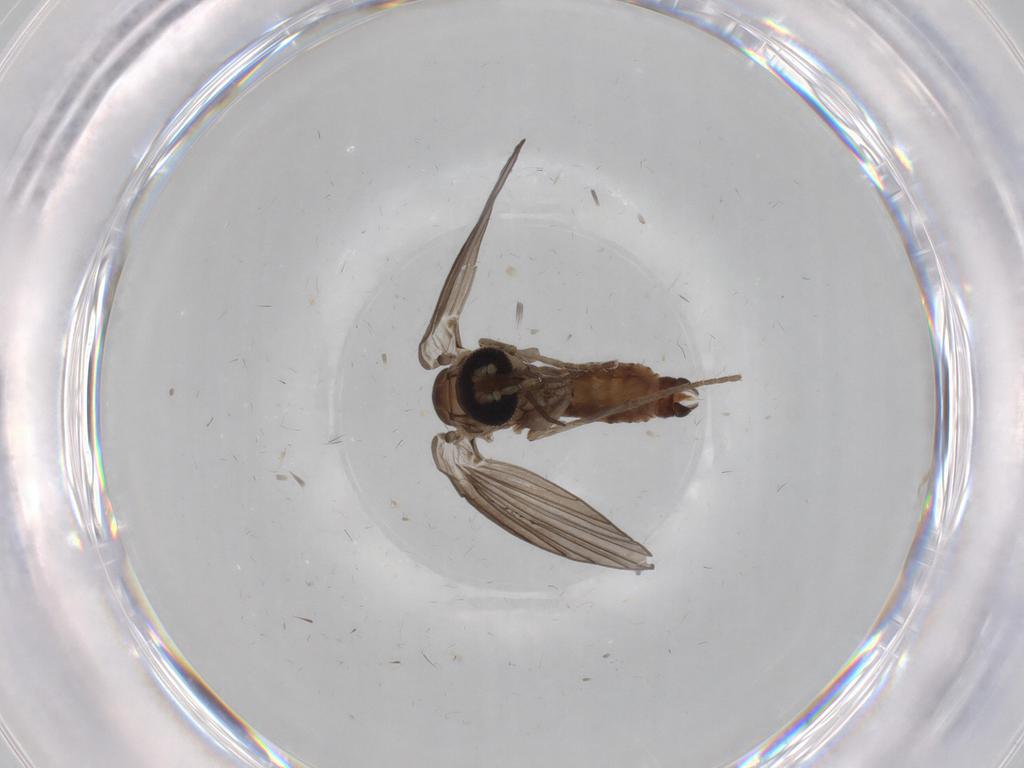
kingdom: Animalia
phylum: Arthropoda
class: Insecta
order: Diptera
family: Cecidomyiidae
